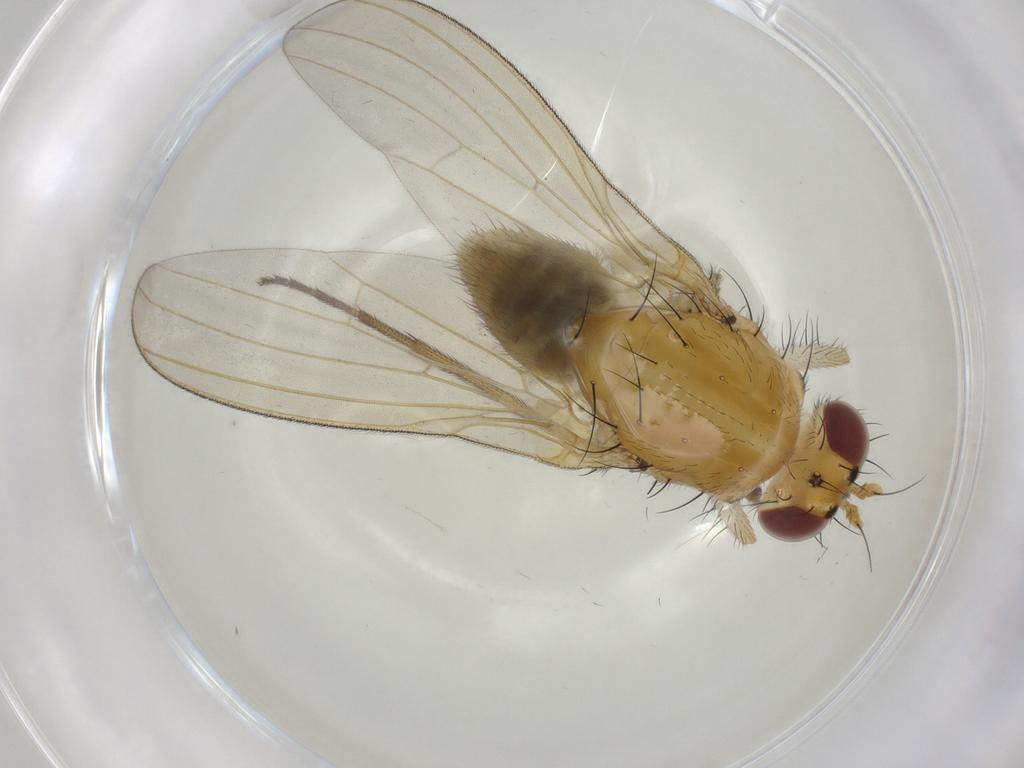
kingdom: Animalia
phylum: Arthropoda
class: Insecta
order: Diptera
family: Lauxaniidae
